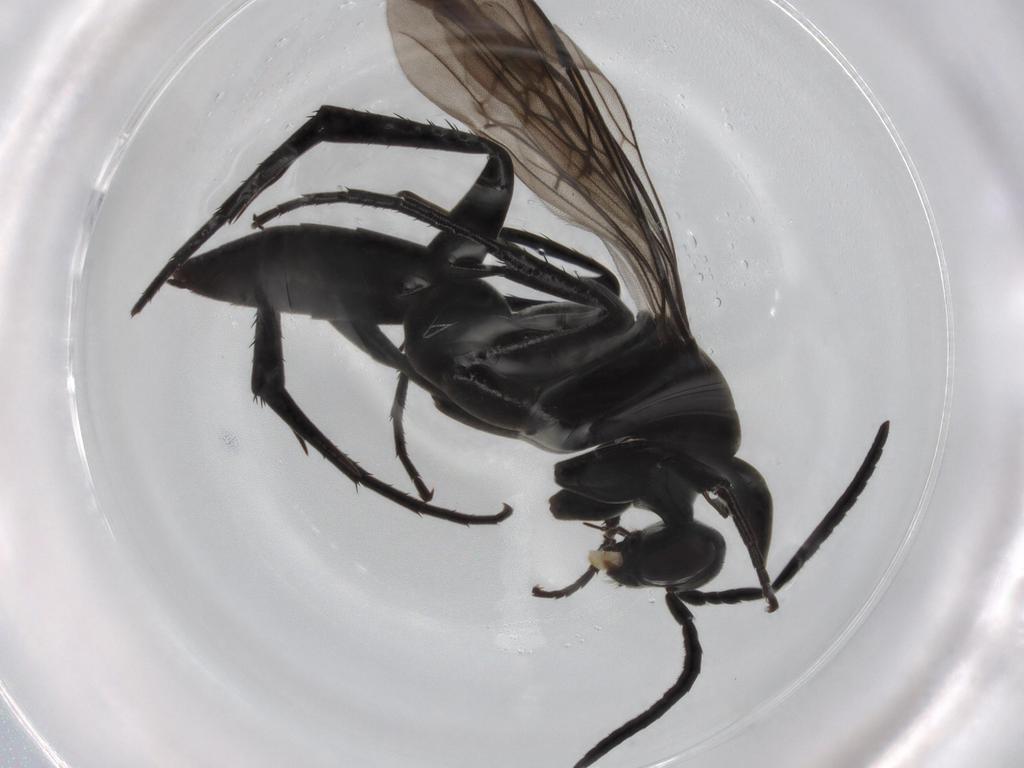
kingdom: Animalia
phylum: Arthropoda
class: Insecta
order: Hymenoptera
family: Pompilidae
